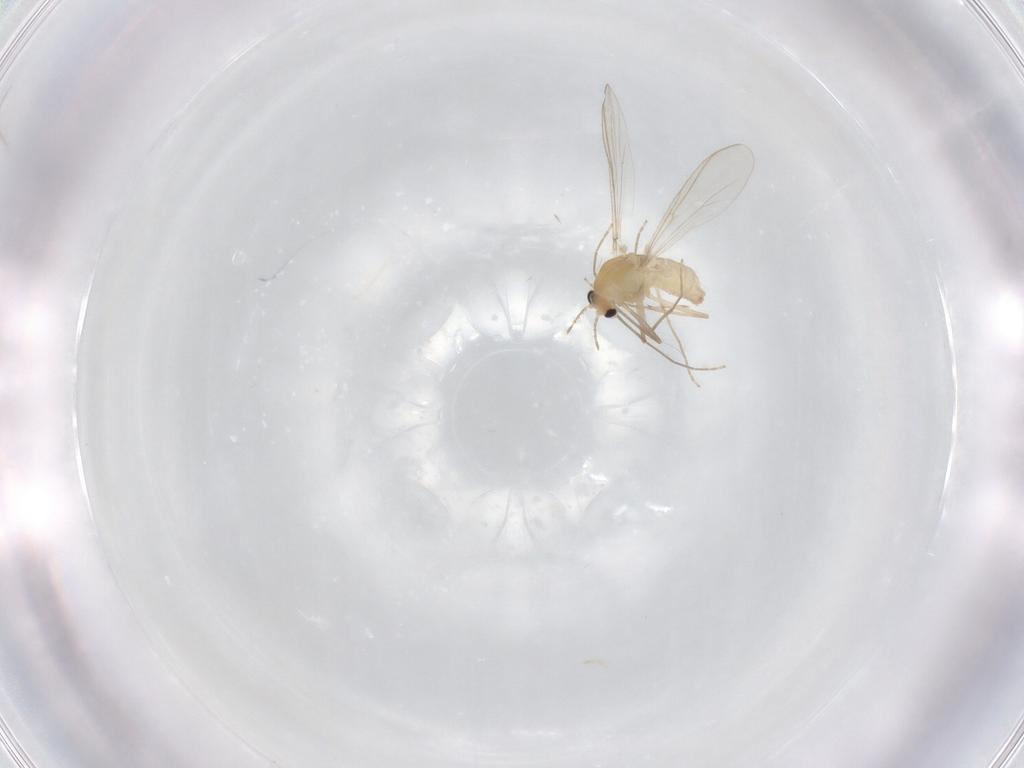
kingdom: Animalia
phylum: Arthropoda
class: Insecta
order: Diptera
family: Chironomidae
